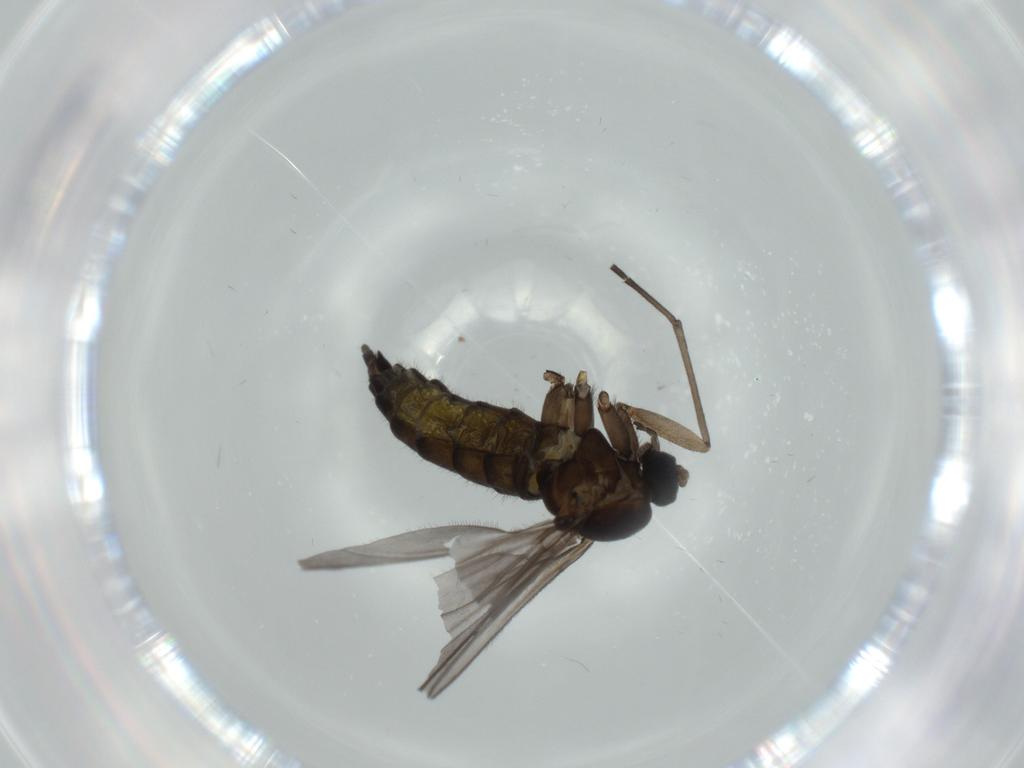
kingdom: Animalia
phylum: Arthropoda
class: Insecta
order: Diptera
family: Sciaridae
